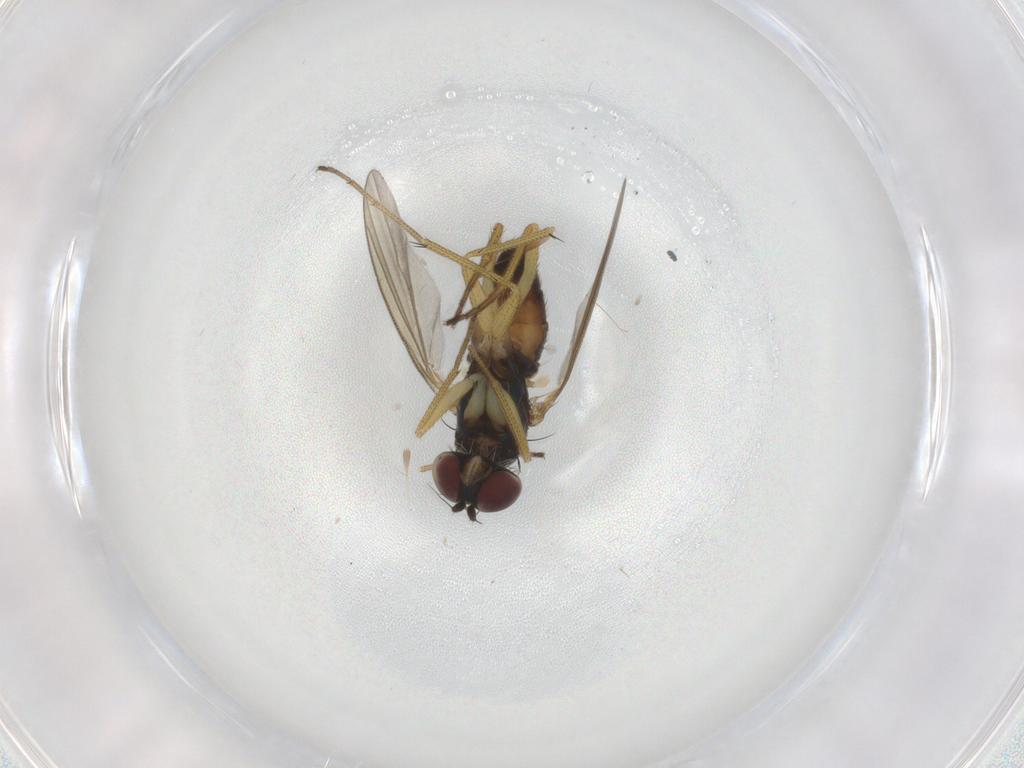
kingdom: Animalia
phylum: Arthropoda
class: Insecta
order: Diptera
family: Dolichopodidae
